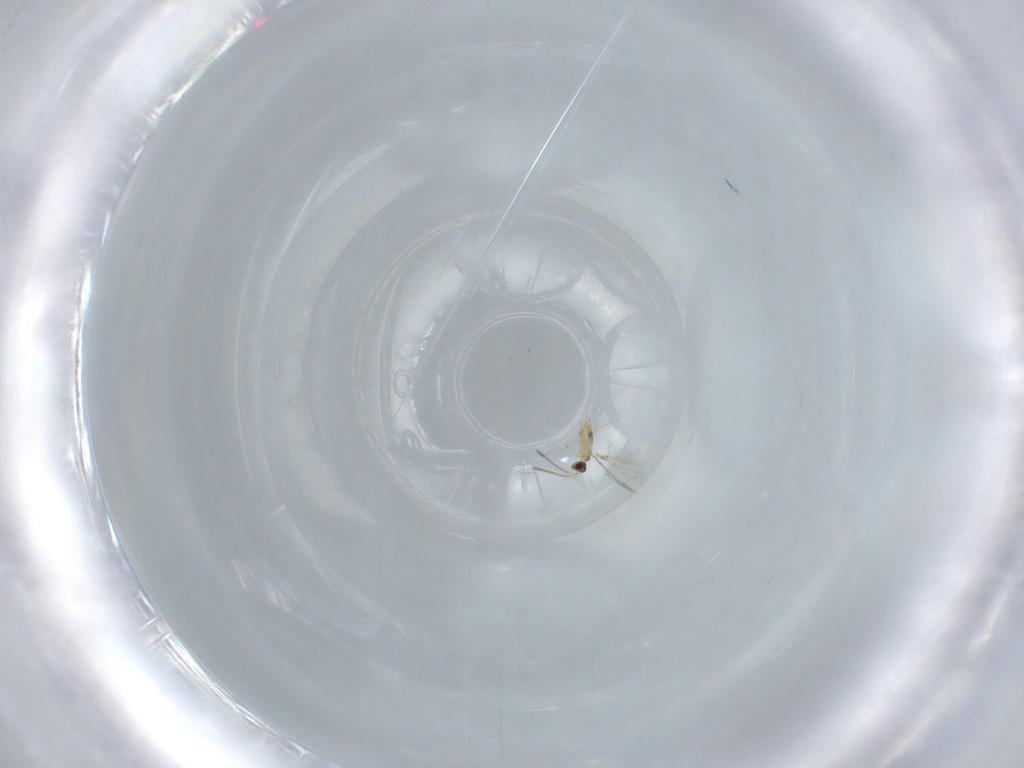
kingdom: Animalia
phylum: Arthropoda
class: Insecta
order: Hymenoptera
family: Mymaridae
